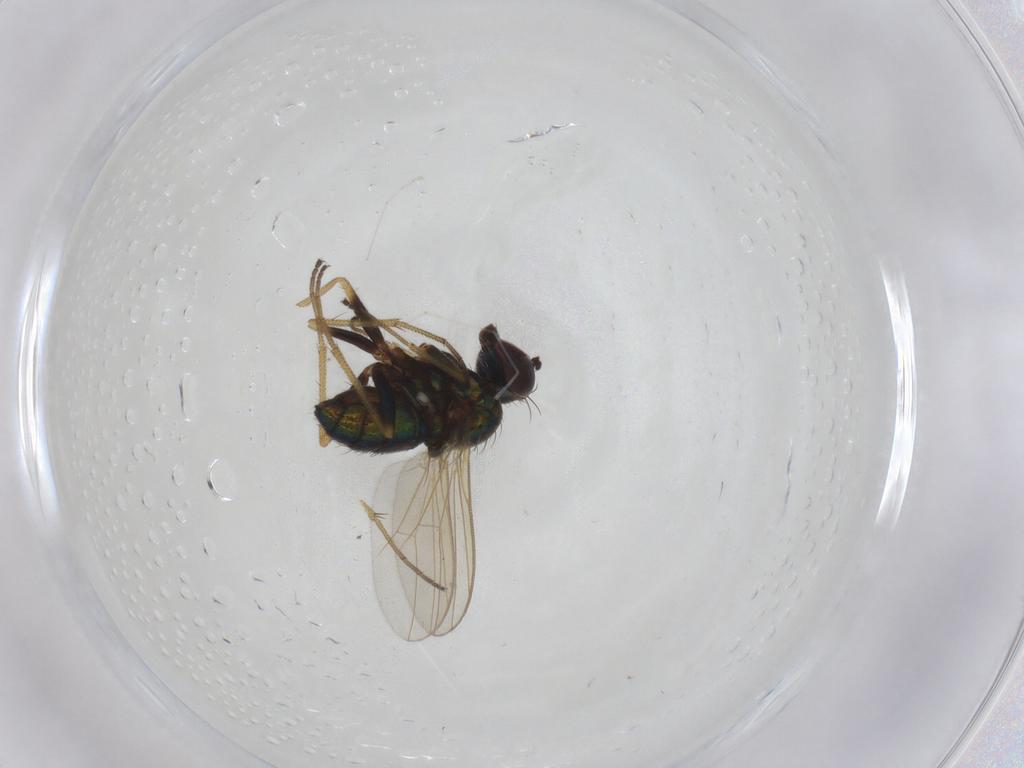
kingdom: Animalia
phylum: Arthropoda
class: Insecta
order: Diptera
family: Dolichopodidae
